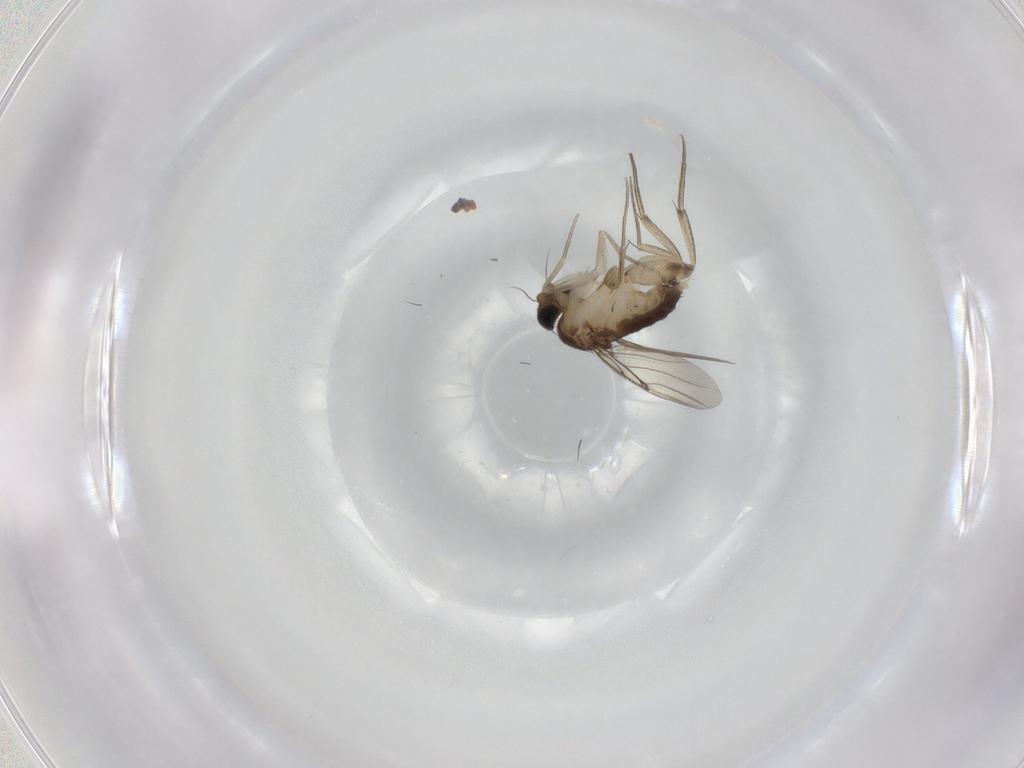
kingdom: Animalia
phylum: Arthropoda
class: Insecta
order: Diptera
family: Phoridae
